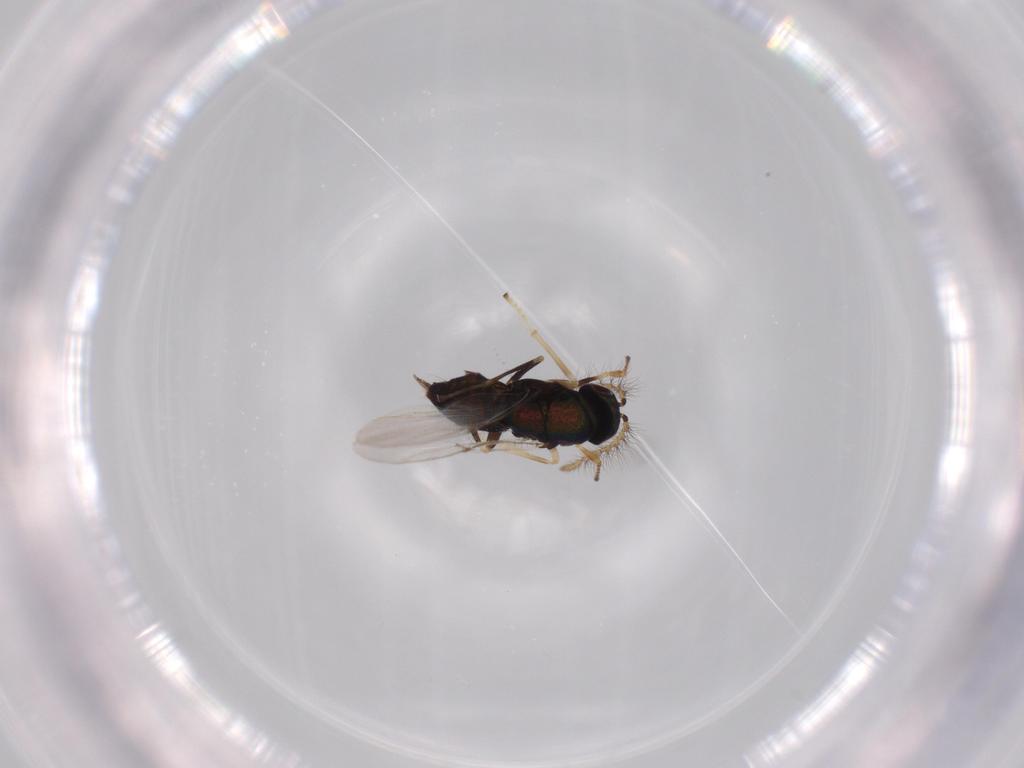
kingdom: Animalia
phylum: Arthropoda
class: Insecta
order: Hymenoptera
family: Encyrtidae
